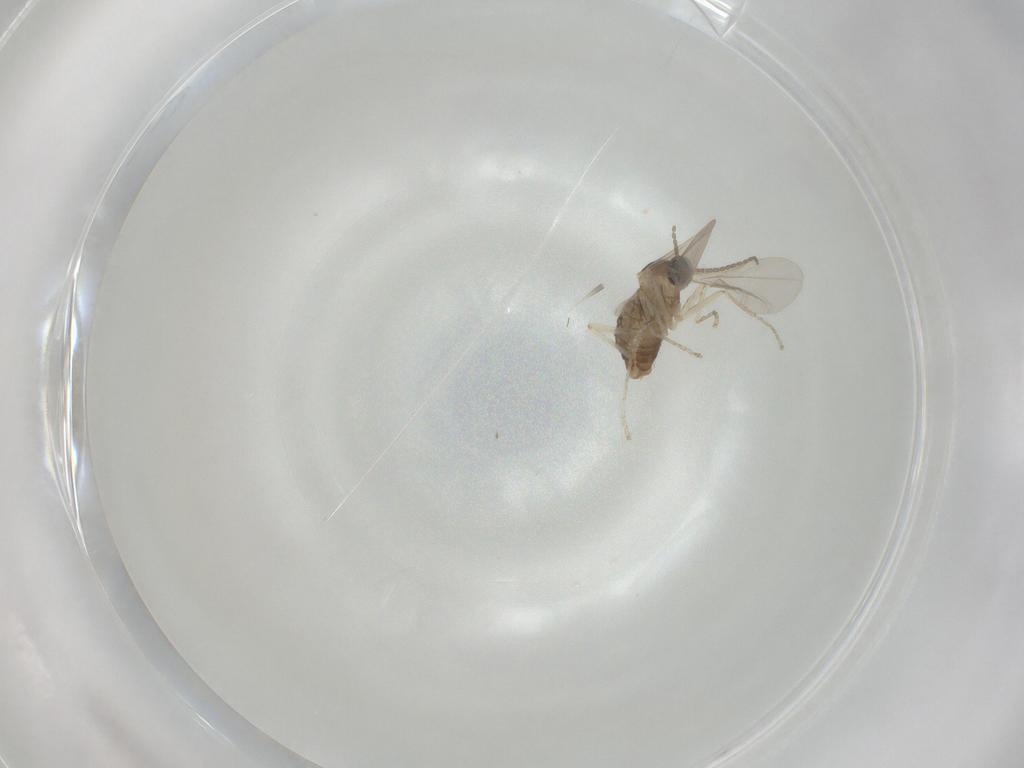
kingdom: Animalia
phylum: Arthropoda
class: Insecta
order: Diptera
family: Cecidomyiidae
